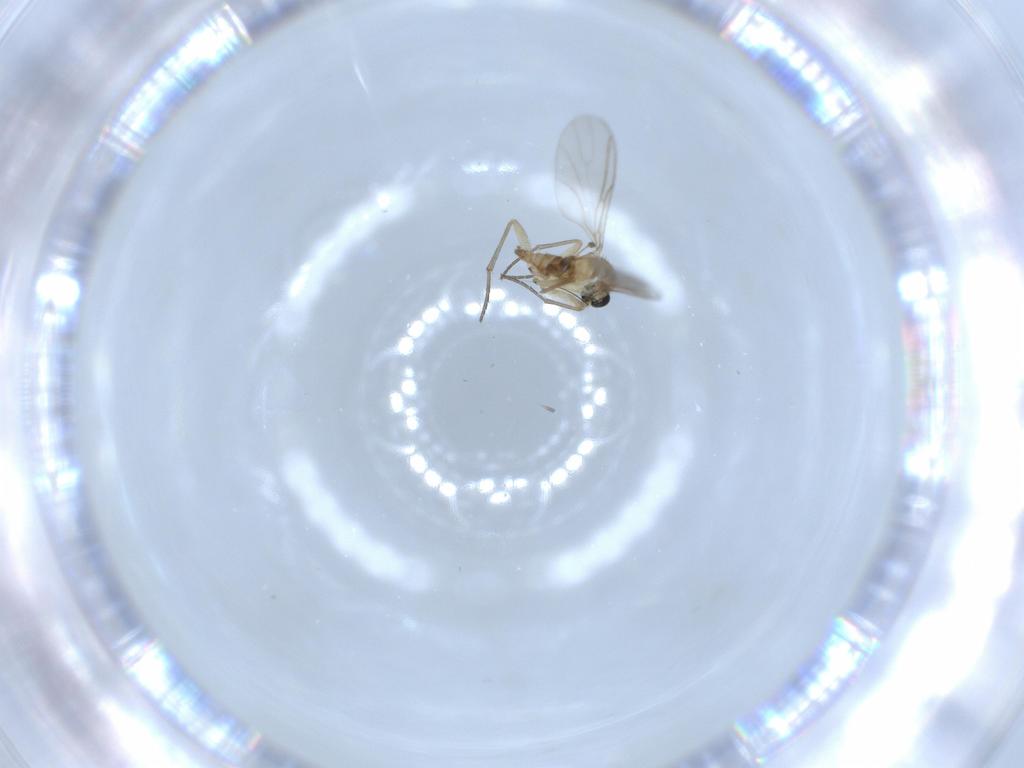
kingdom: Animalia
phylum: Arthropoda
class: Insecta
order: Diptera
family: Sciaridae
